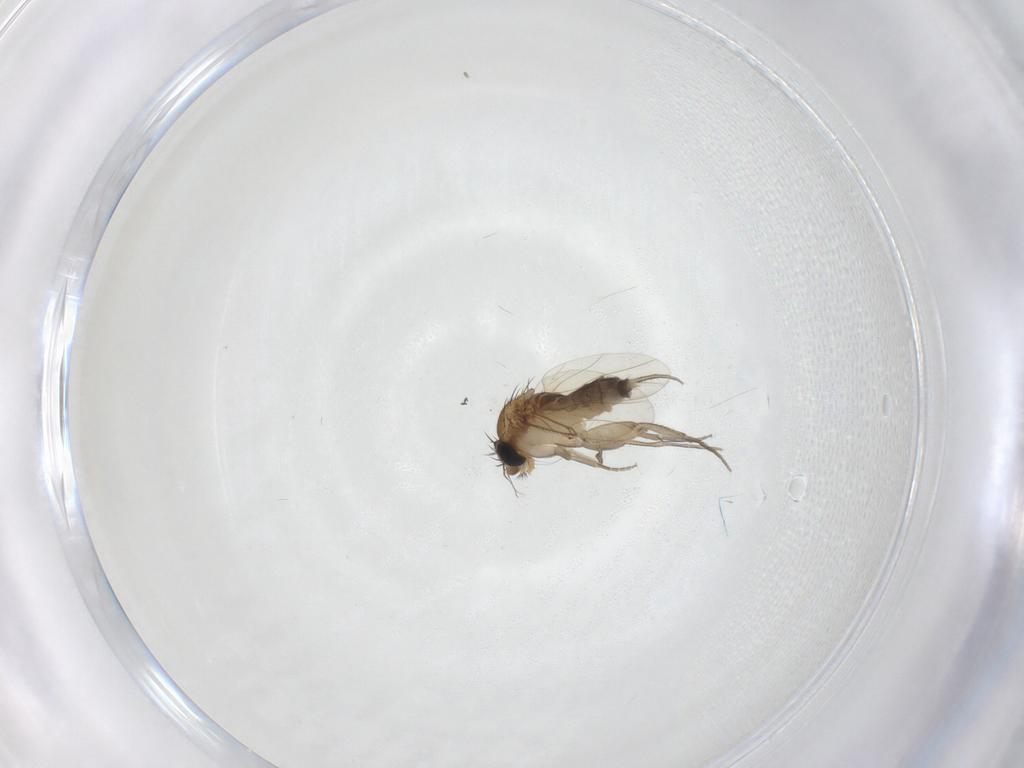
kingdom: Animalia
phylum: Arthropoda
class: Insecta
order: Diptera
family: Phoridae
